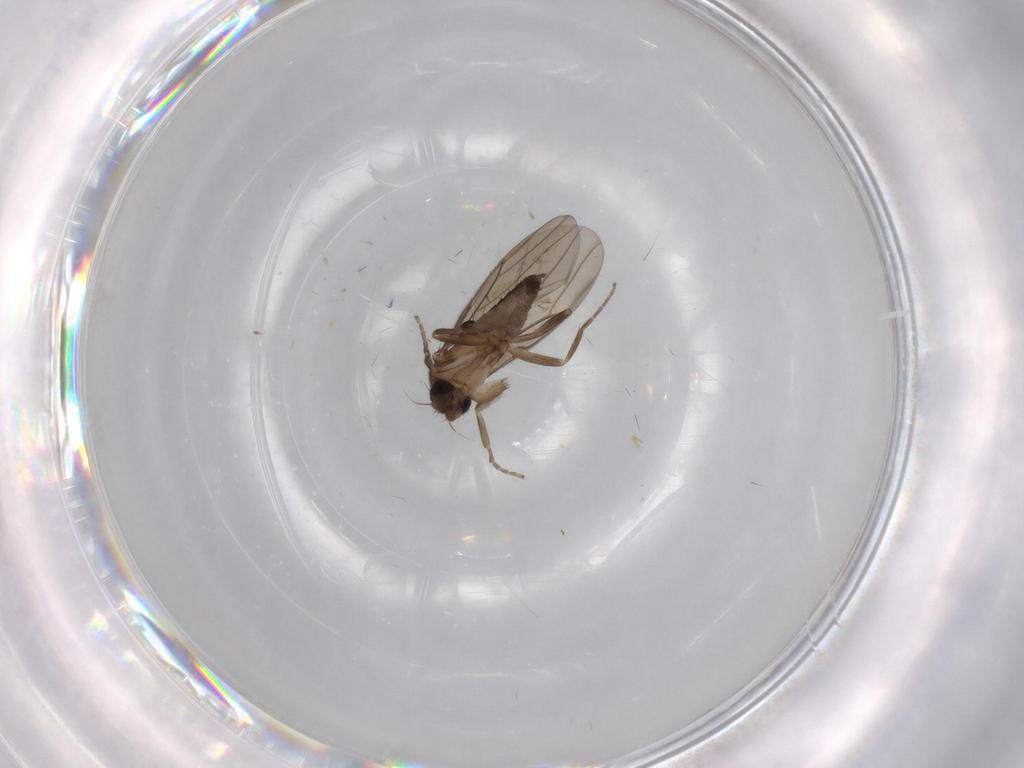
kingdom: Animalia
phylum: Arthropoda
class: Insecta
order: Diptera
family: Cecidomyiidae
